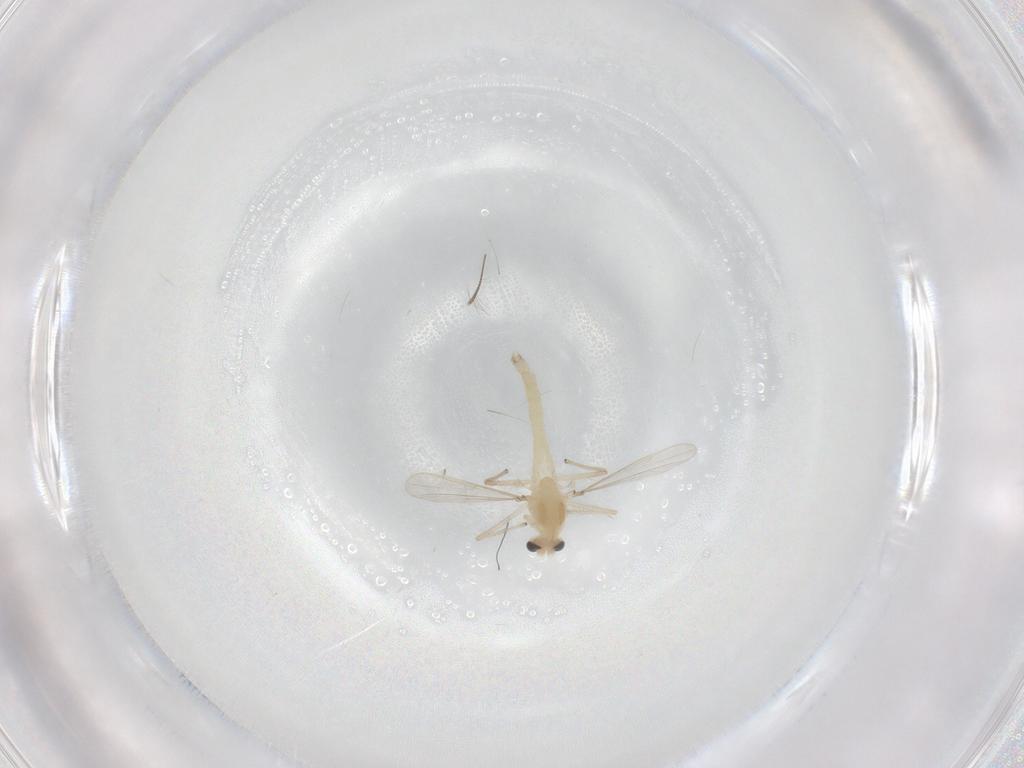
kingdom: Animalia
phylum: Arthropoda
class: Insecta
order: Diptera
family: Chironomidae
